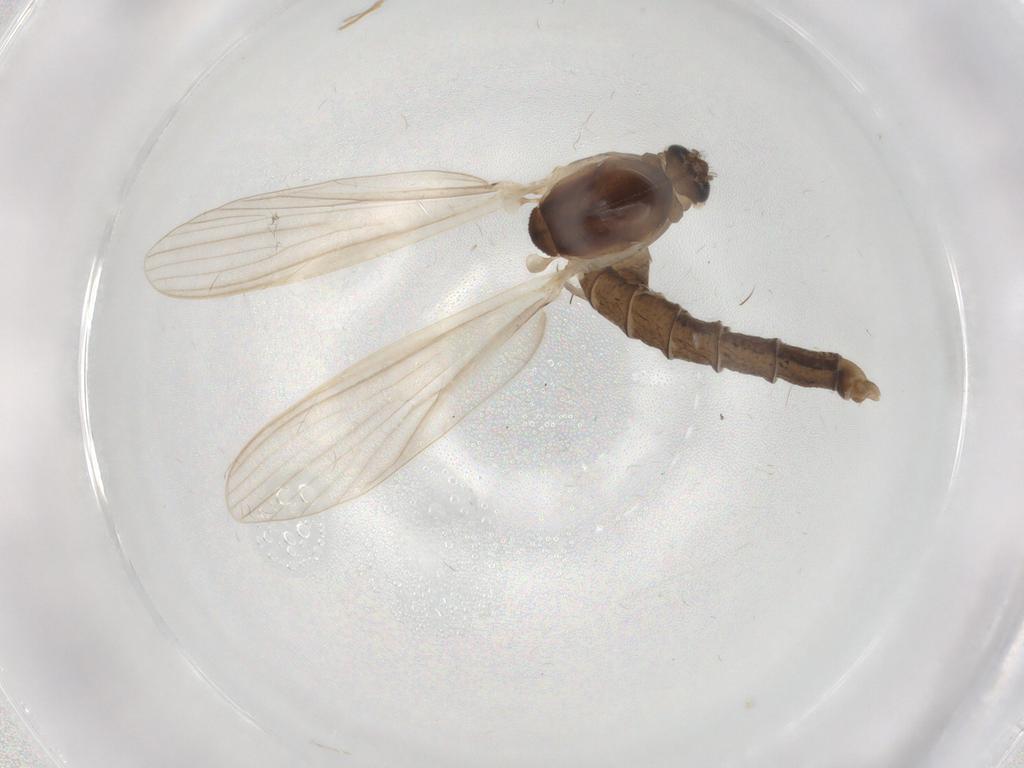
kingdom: Animalia
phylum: Arthropoda
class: Insecta
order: Diptera
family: Chaoboridae
